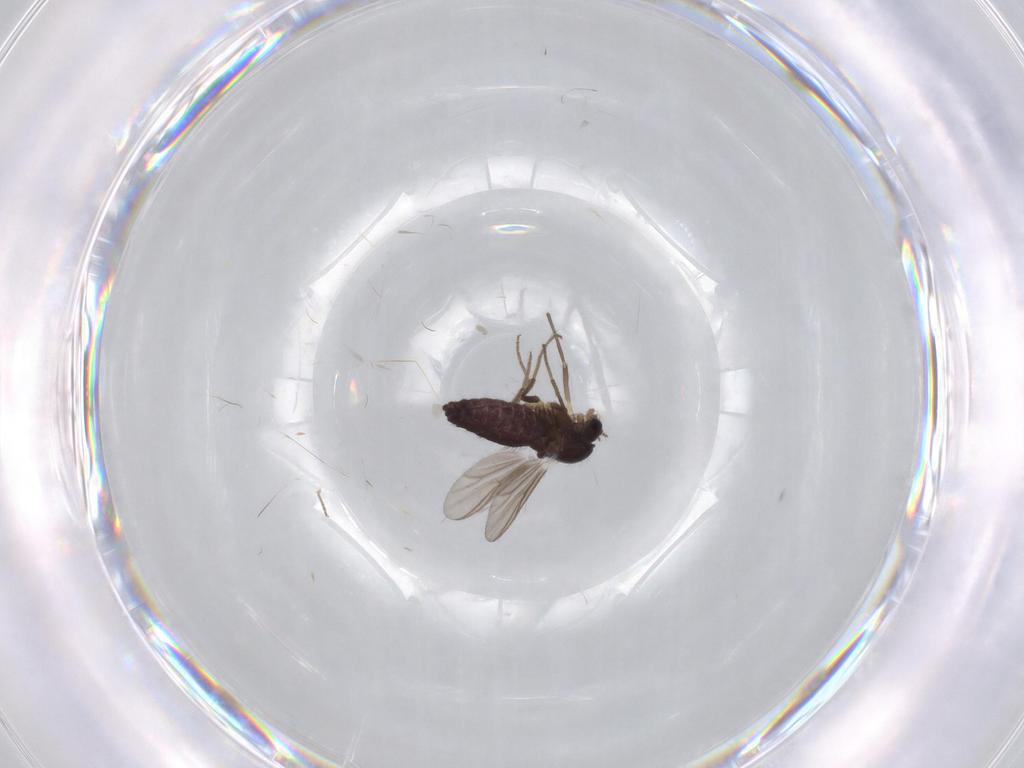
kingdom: Animalia
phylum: Arthropoda
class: Insecta
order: Diptera
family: Chironomidae
